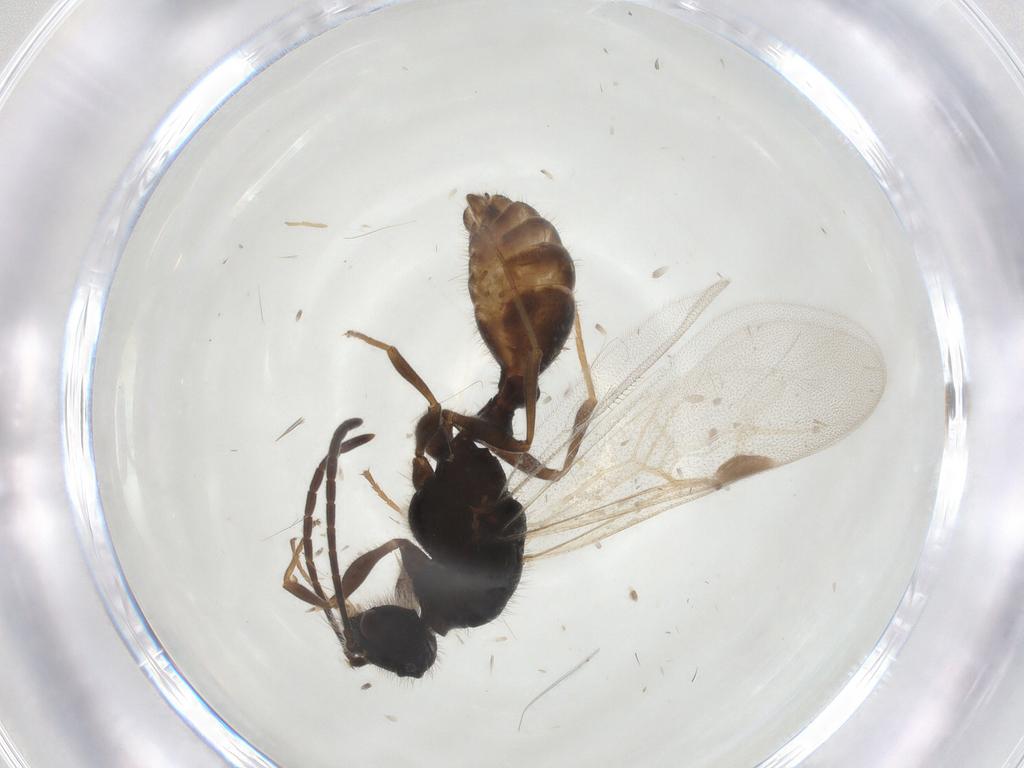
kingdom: Animalia
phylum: Arthropoda
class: Insecta
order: Hymenoptera
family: Formicidae
